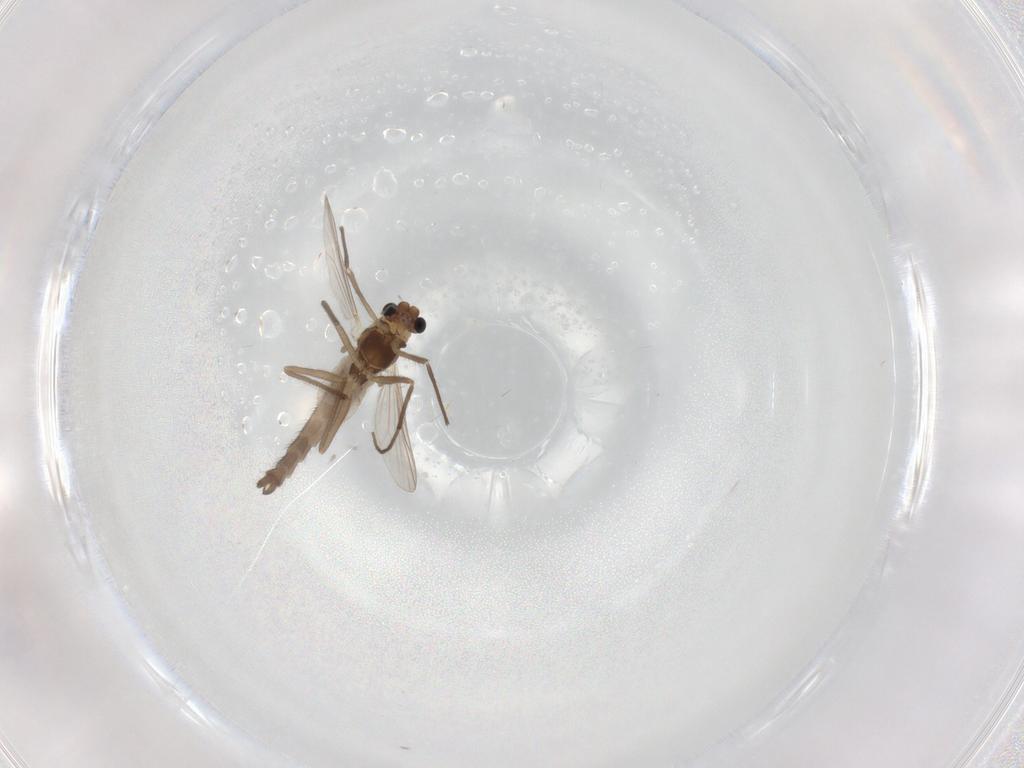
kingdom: Animalia
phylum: Arthropoda
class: Insecta
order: Diptera
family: Chironomidae
